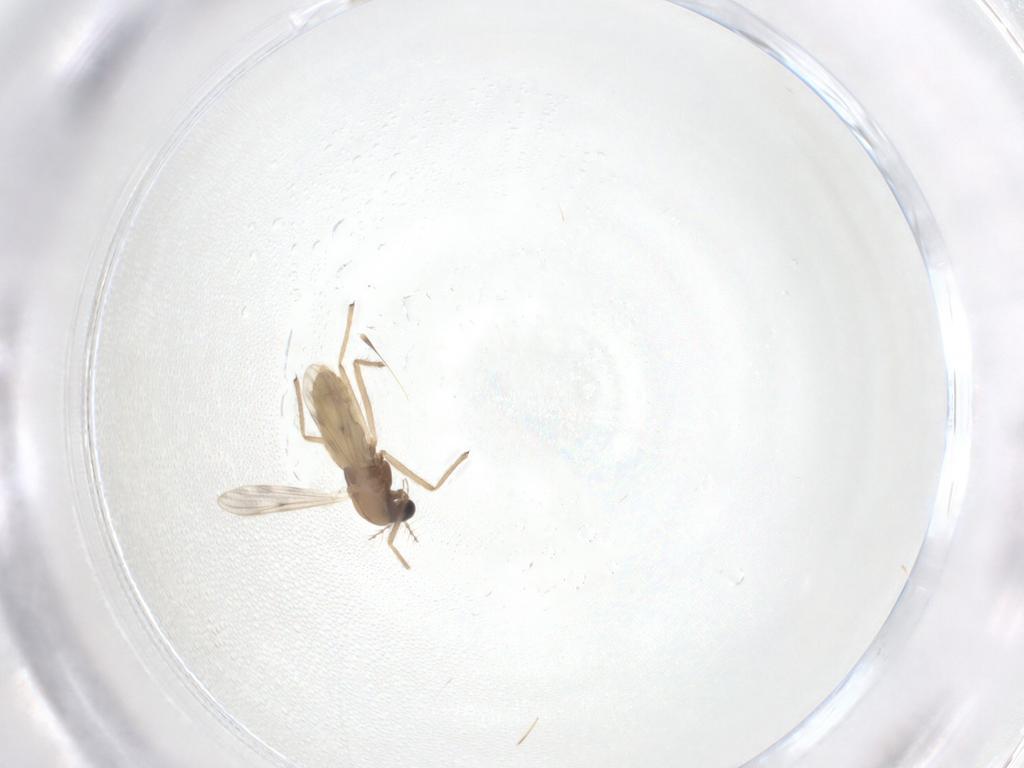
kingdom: Animalia
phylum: Arthropoda
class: Insecta
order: Diptera
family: Chironomidae
